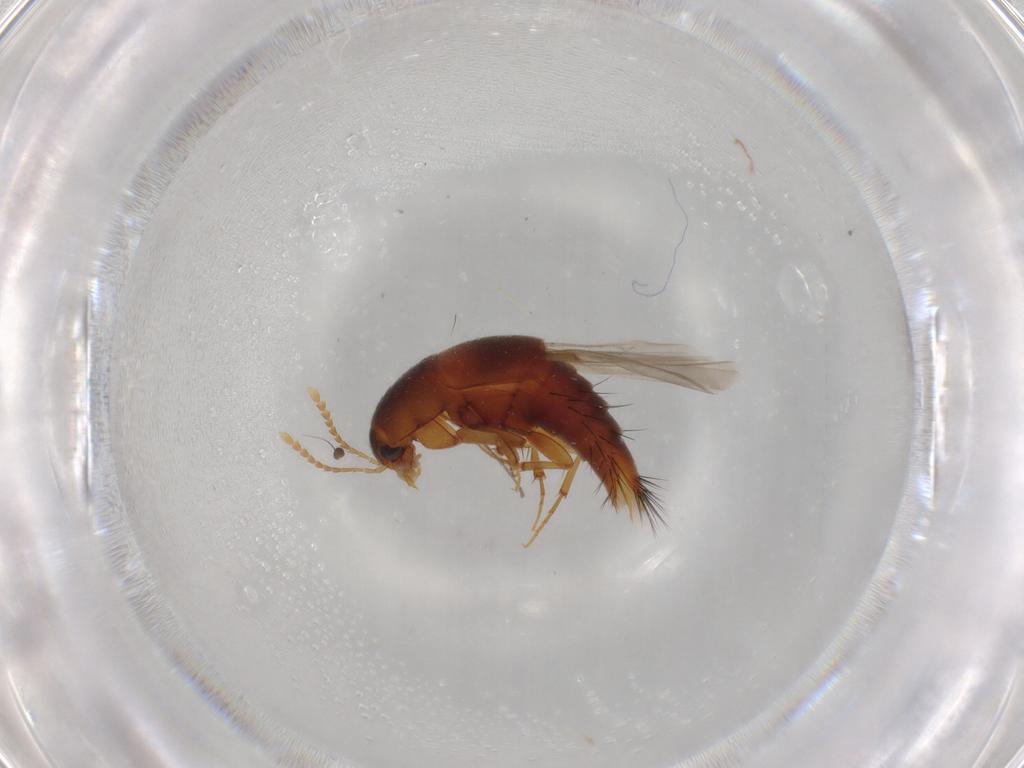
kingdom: Animalia
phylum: Arthropoda
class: Insecta
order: Coleoptera
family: Staphylinidae
